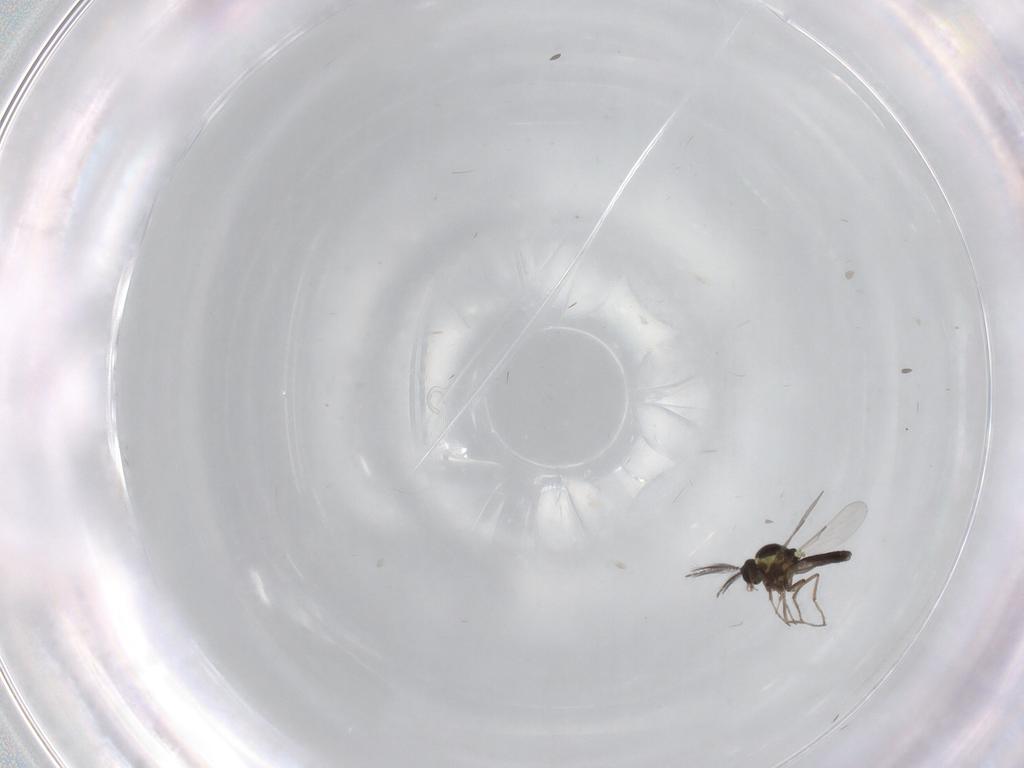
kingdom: Animalia
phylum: Arthropoda
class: Insecta
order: Diptera
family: Ceratopogonidae
